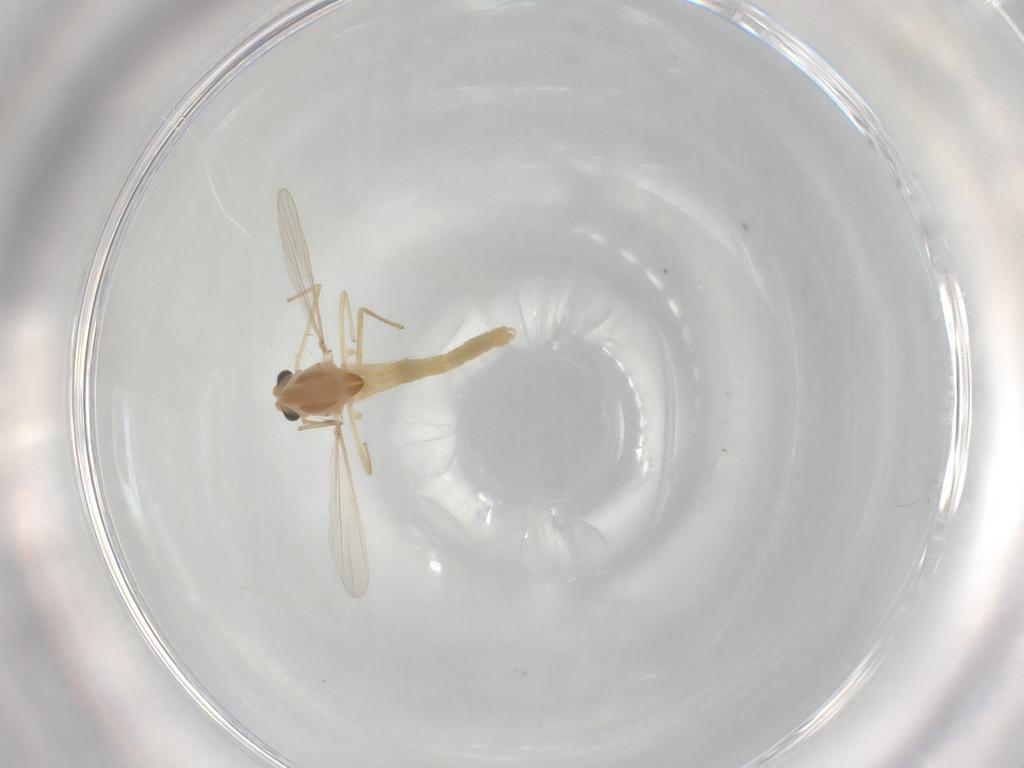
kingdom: Animalia
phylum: Arthropoda
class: Insecta
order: Diptera
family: Chironomidae
